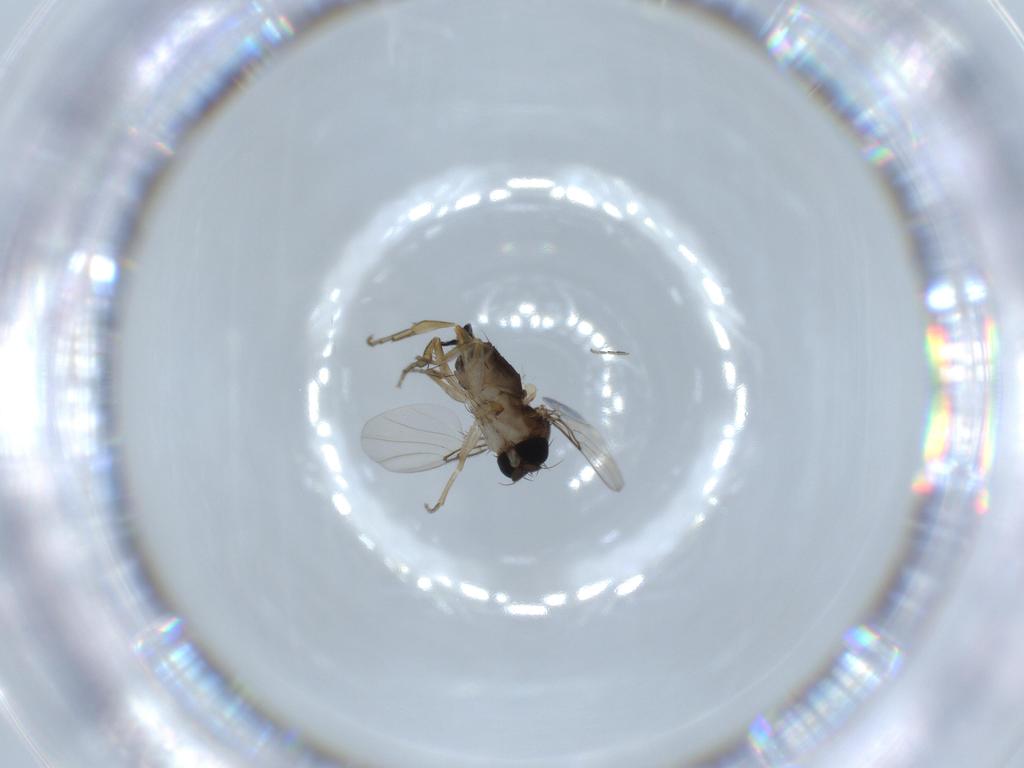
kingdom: Animalia
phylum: Arthropoda
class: Insecta
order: Diptera
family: Phoridae
